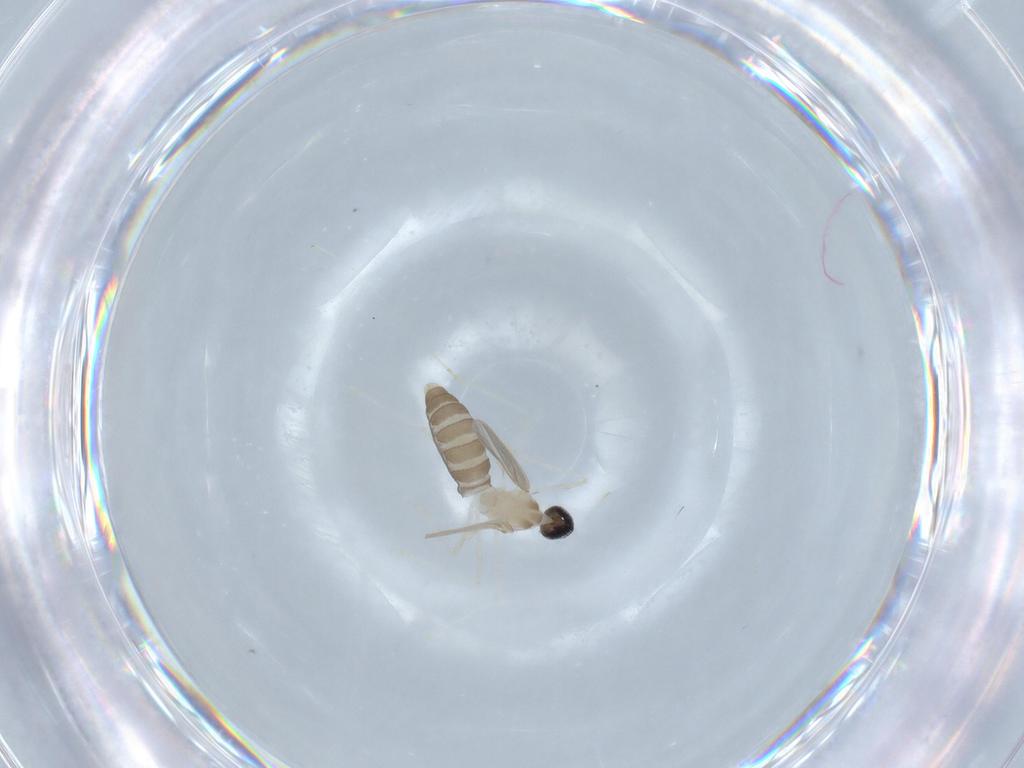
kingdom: Animalia
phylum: Arthropoda
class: Insecta
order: Diptera
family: Cecidomyiidae
